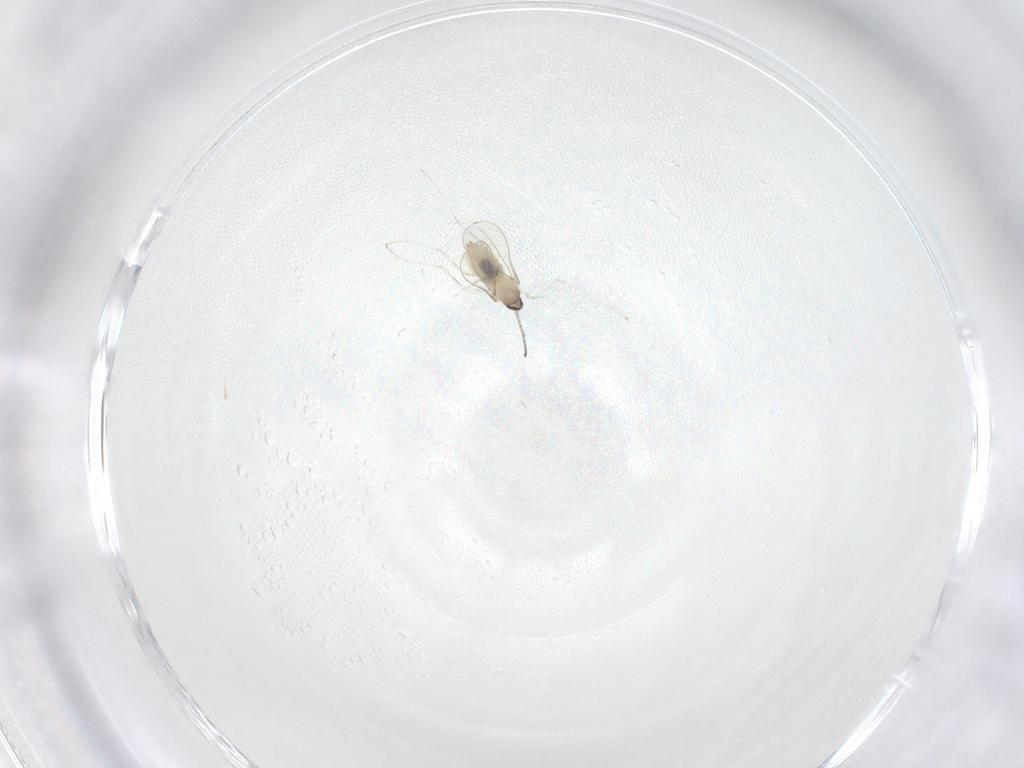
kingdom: Animalia
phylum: Arthropoda
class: Insecta
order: Diptera
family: Cecidomyiidae
